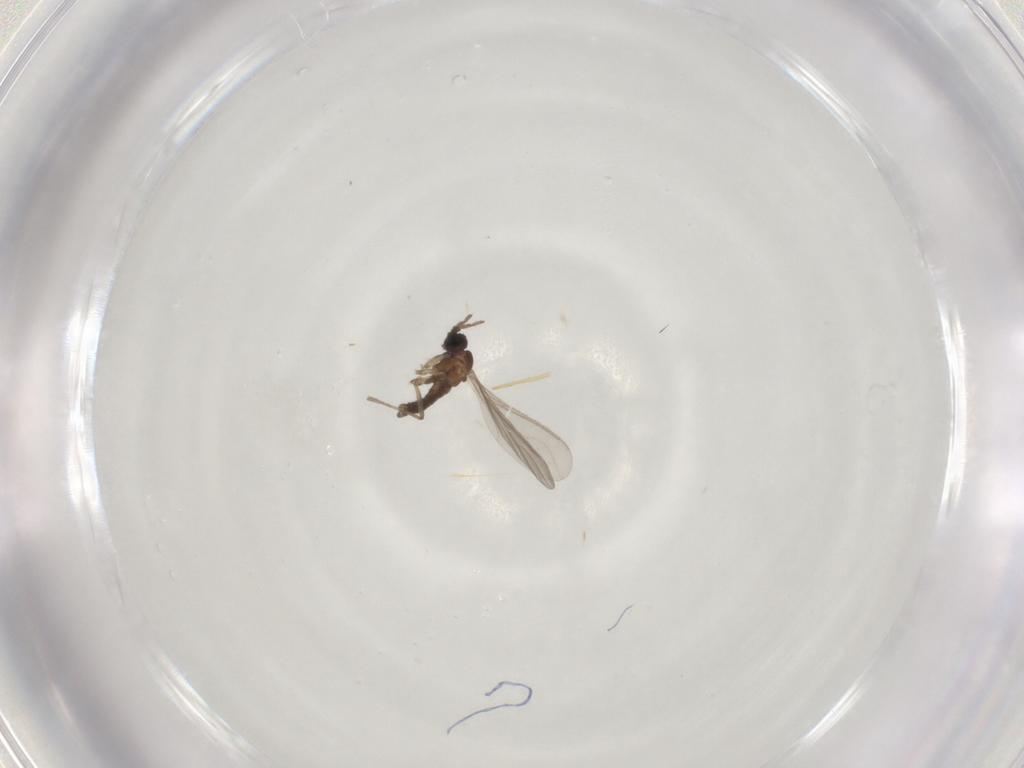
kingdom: Animalia
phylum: Arthropoda
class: Insecta
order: Diptera
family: Sciaridae
